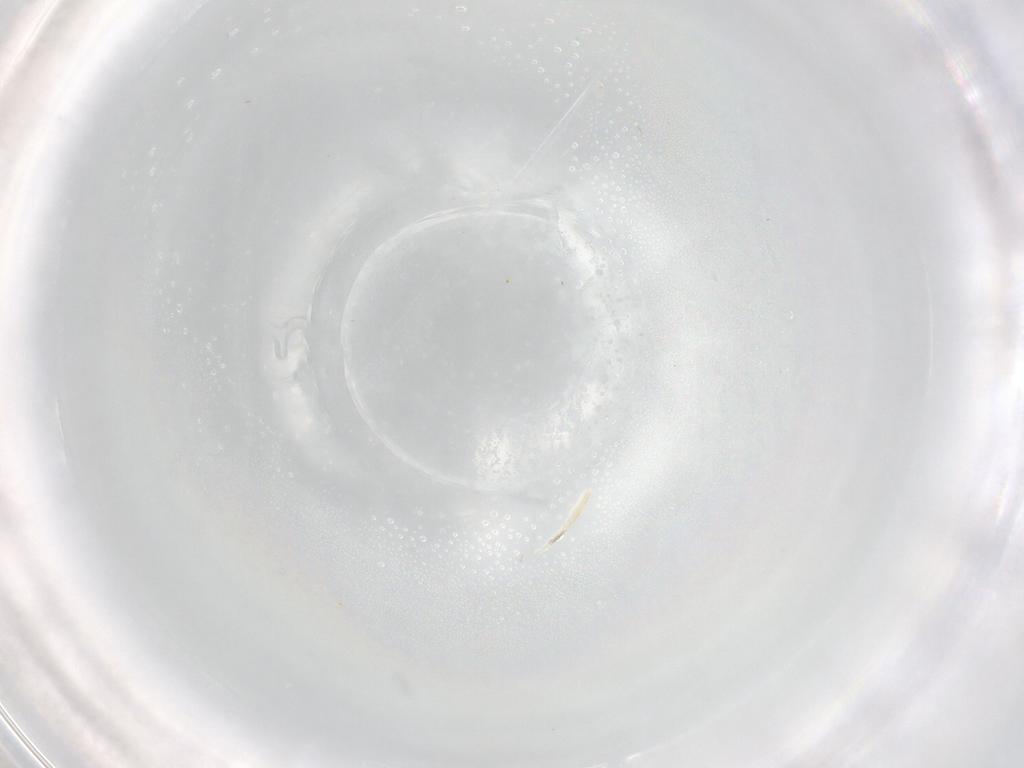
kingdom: Animalia
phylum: Arthropoda
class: Insecta
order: Hemiptera
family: Cicadellidae
